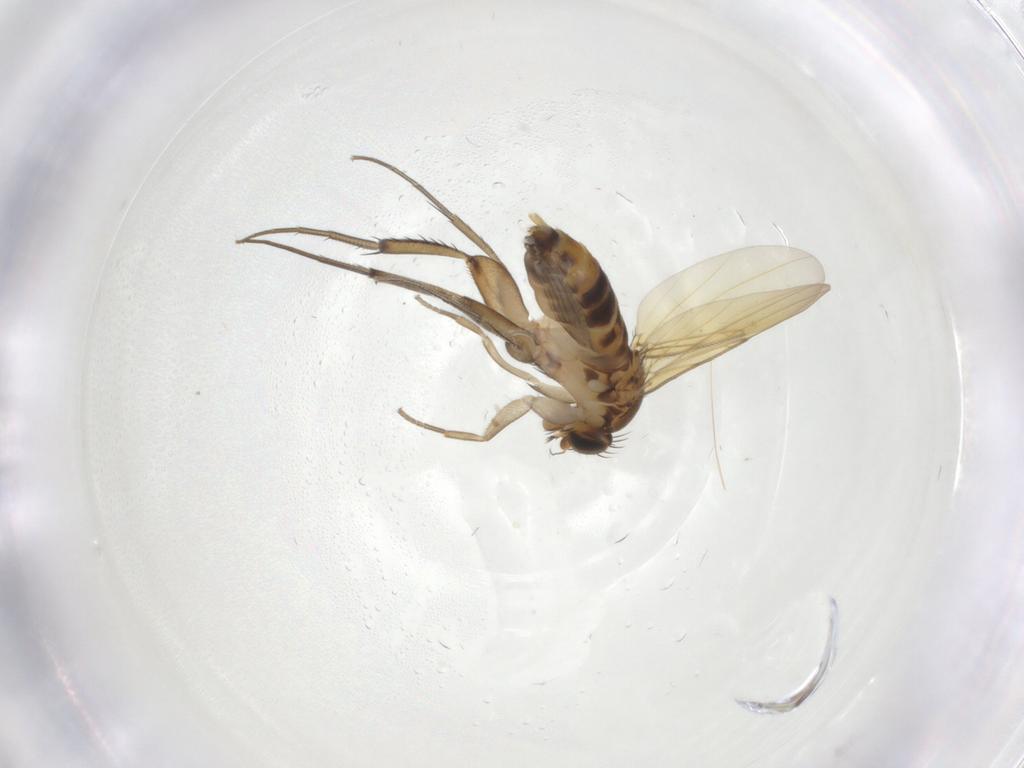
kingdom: Animalia
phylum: Arthropoda
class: Insecta
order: Diptera
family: Phoridae
